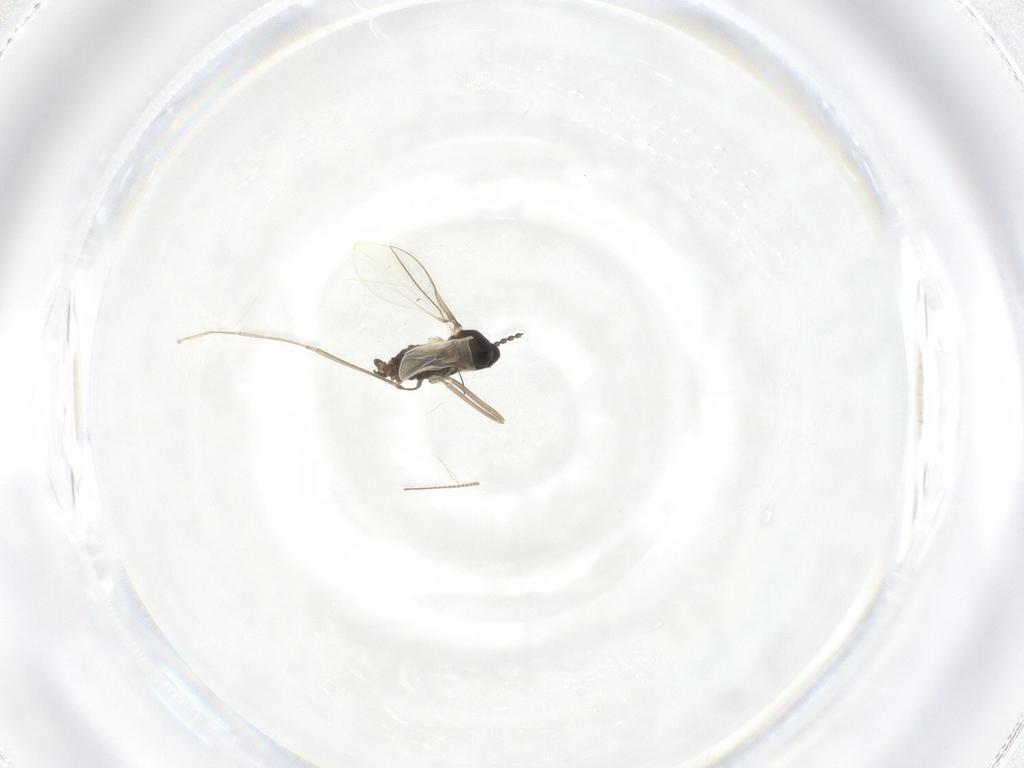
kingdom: Animalia
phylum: Arthropoda
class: Insecta
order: Diptera
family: Cecidomyiidae
